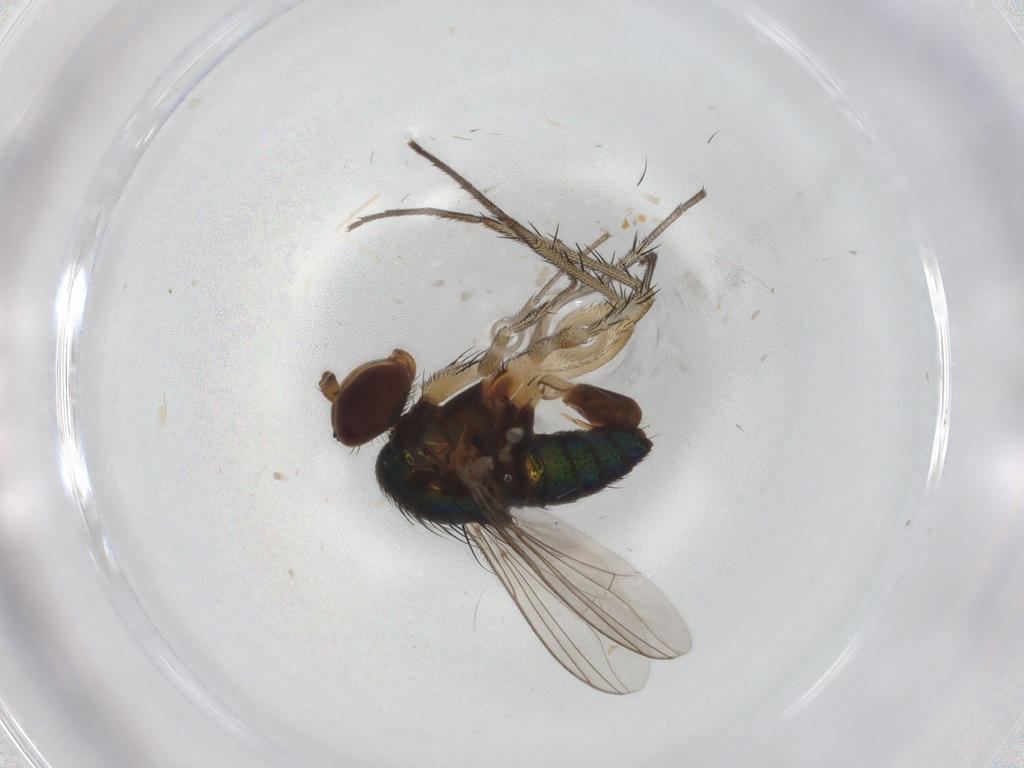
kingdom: Animalia
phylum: Arthropoda
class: Insecta
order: Diptera
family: Dolichopodidae
